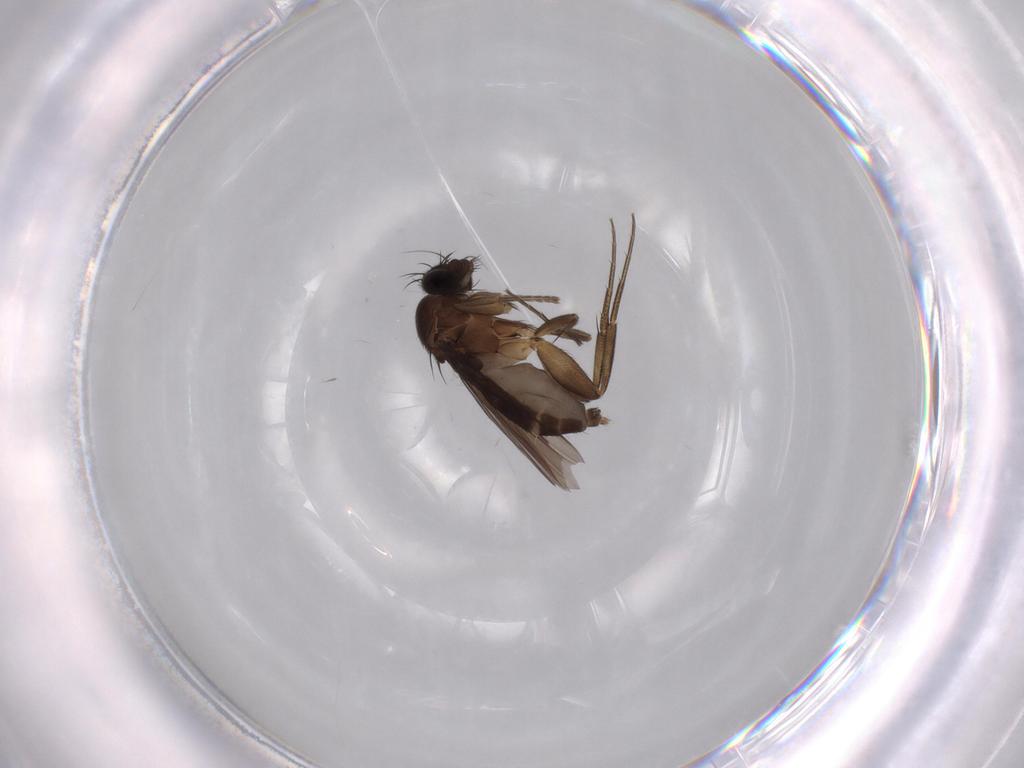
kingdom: Animalia
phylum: Arthropoda
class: Insecta
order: Diptera
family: Phoridae
